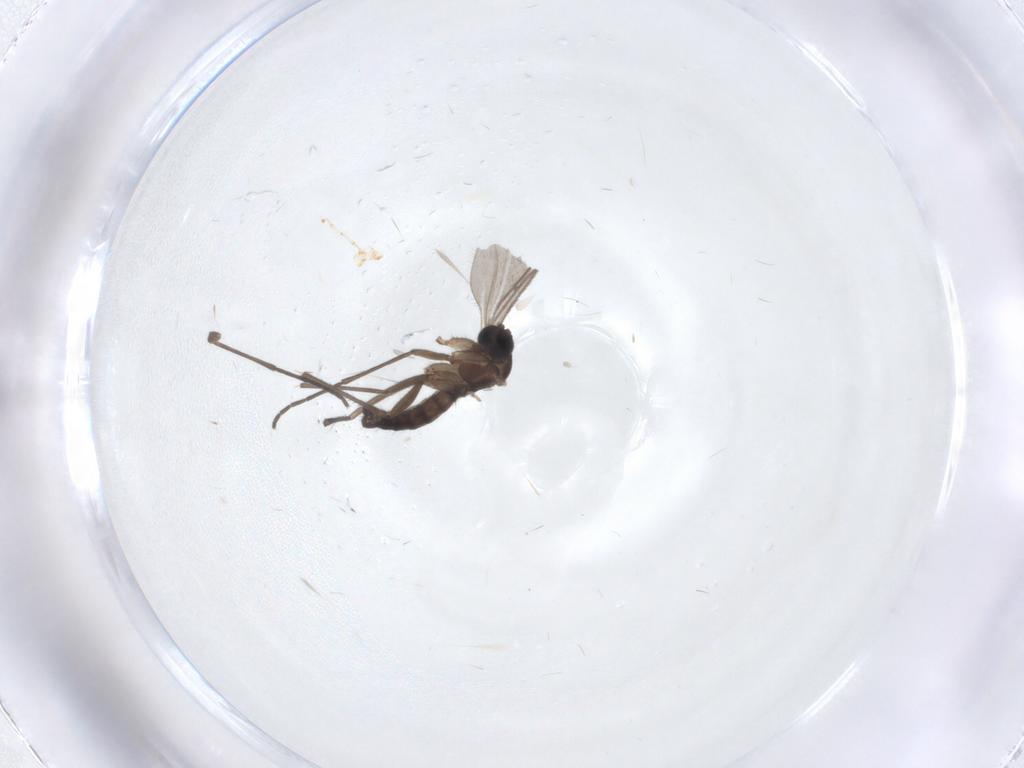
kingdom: Animalia
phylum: Arthropoda
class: Insecta
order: Diptera
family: Sciaridae
